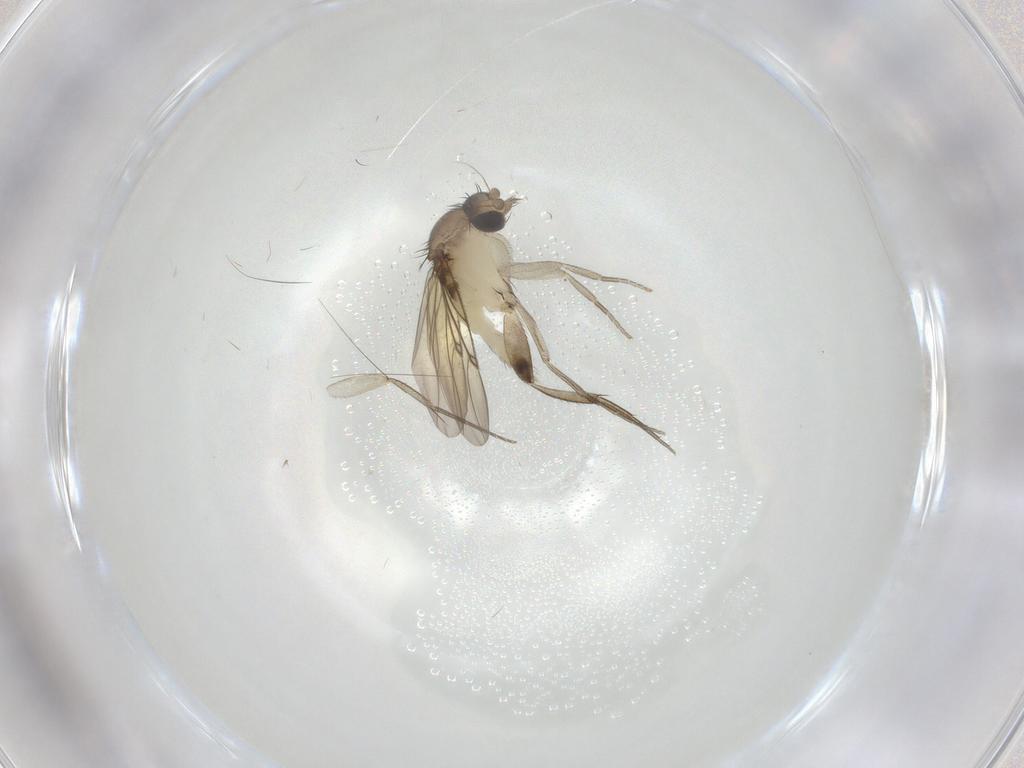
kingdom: Animalia
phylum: Arthropoda
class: Insecta
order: Diptera
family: Phoridae
